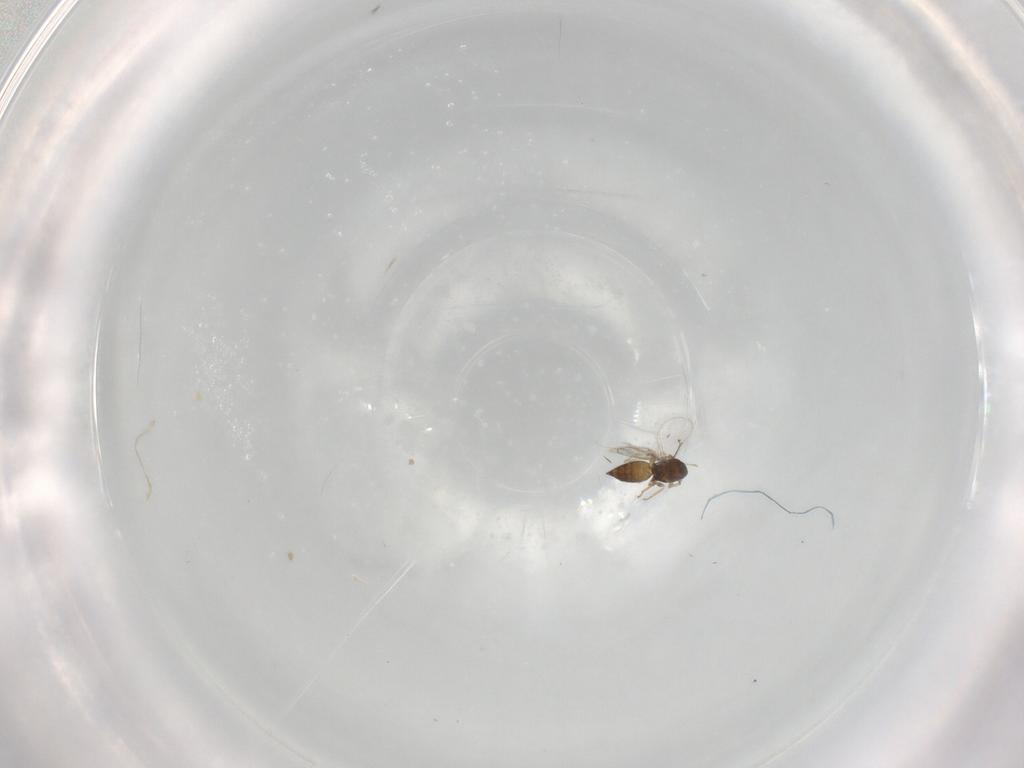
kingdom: Animalia
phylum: Arthropoda
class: Insecta
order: Hymenoptera
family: Eulophidae
